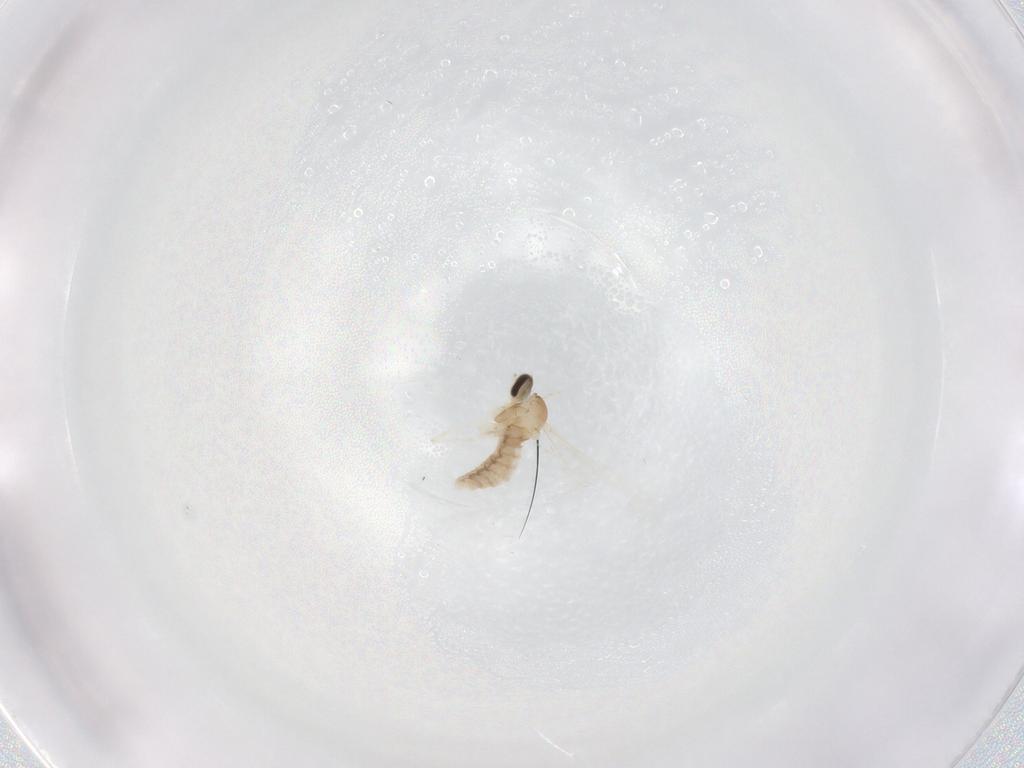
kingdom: Animalia
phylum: Arthropoda
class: Insecta
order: Diptera
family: Cecidomyiidae
